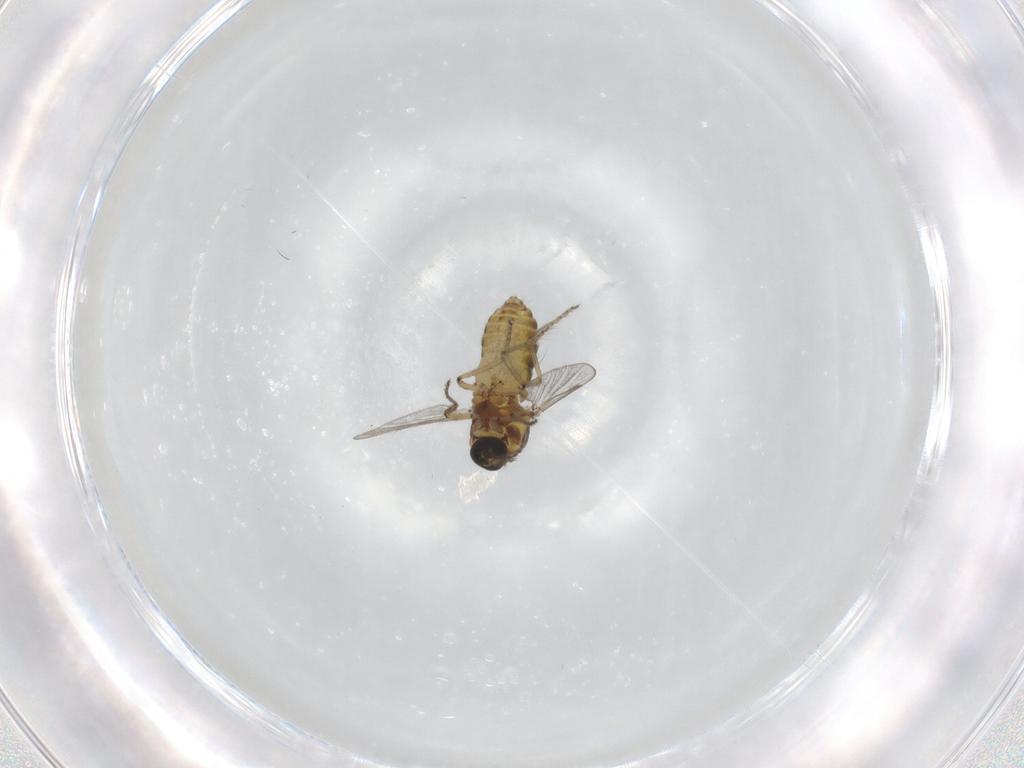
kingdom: Animalia
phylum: Arthropoda
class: Insecta
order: Diptera
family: Ceratopogonidae
